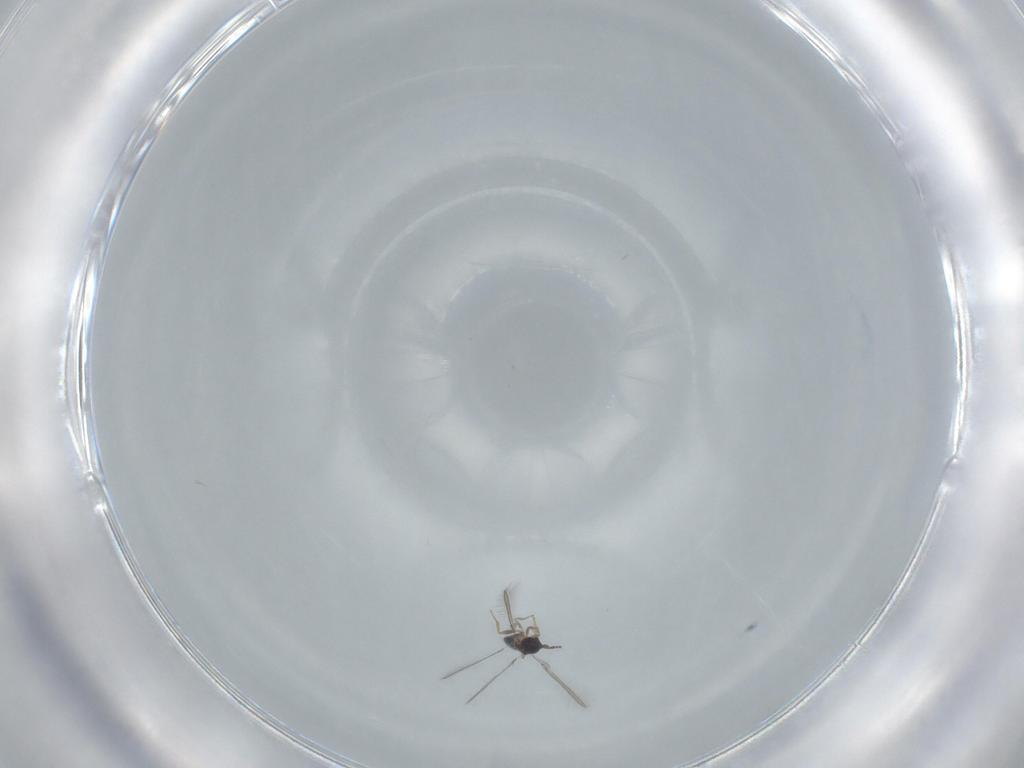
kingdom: Animalia
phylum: Arthropoda
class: Insecta
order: Hymenoptera
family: Mymaridae
